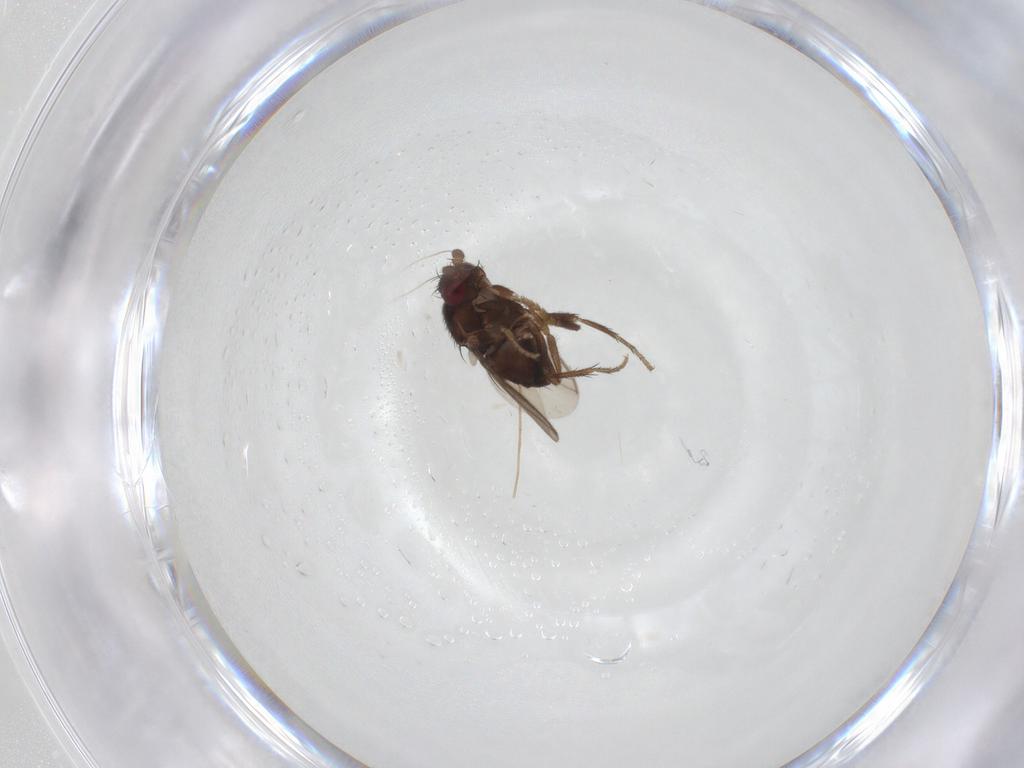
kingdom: Animalia
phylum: Arthropoda
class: Insecta
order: Diptera
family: Sphaeroceridae
